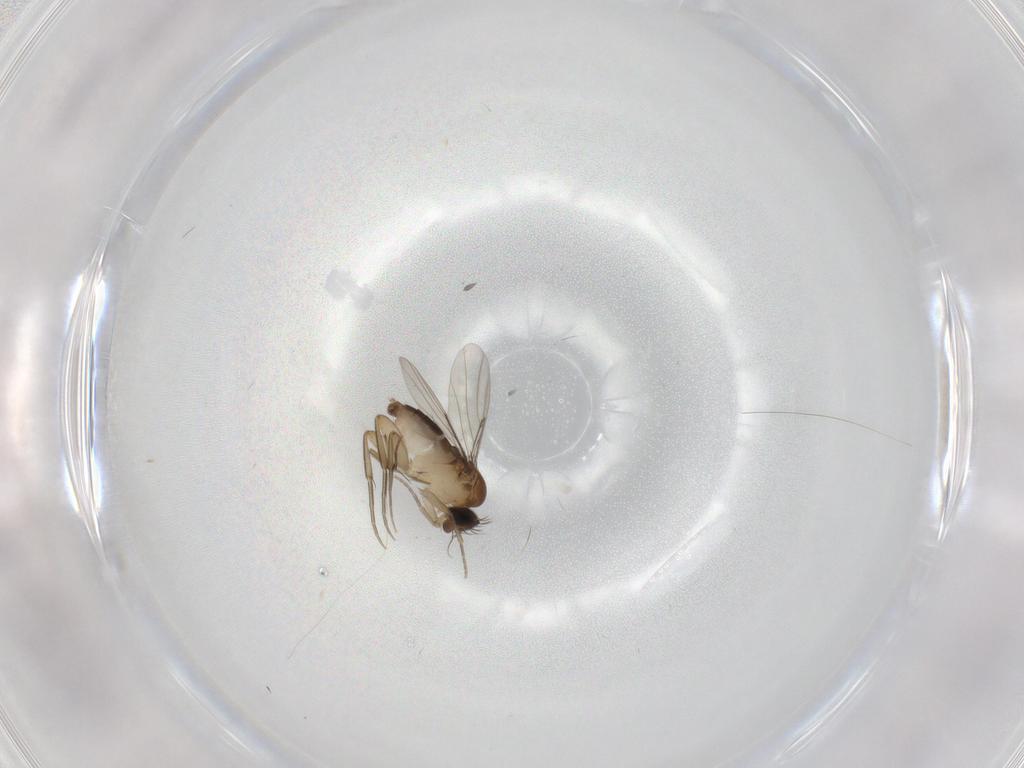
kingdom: Animalia
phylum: Arthropoda
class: Insecta
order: Diptera
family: Phoridae
